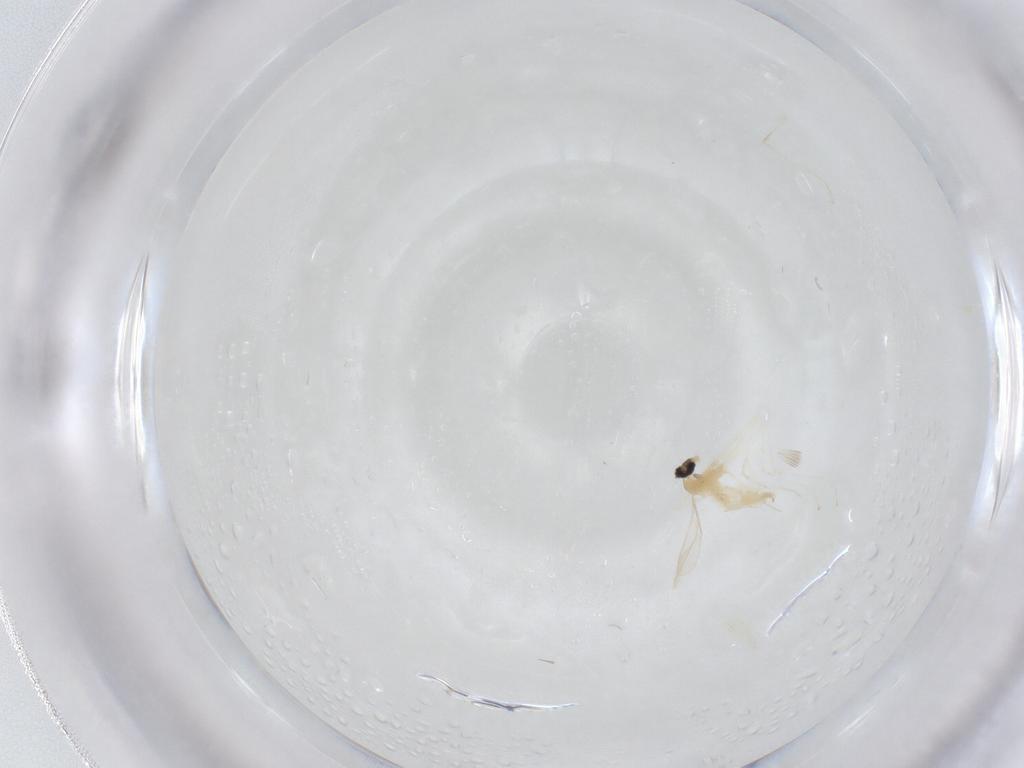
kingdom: Animalia
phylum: Arthropoda
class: Insecta
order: Diptera
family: Cecidomyiidae
